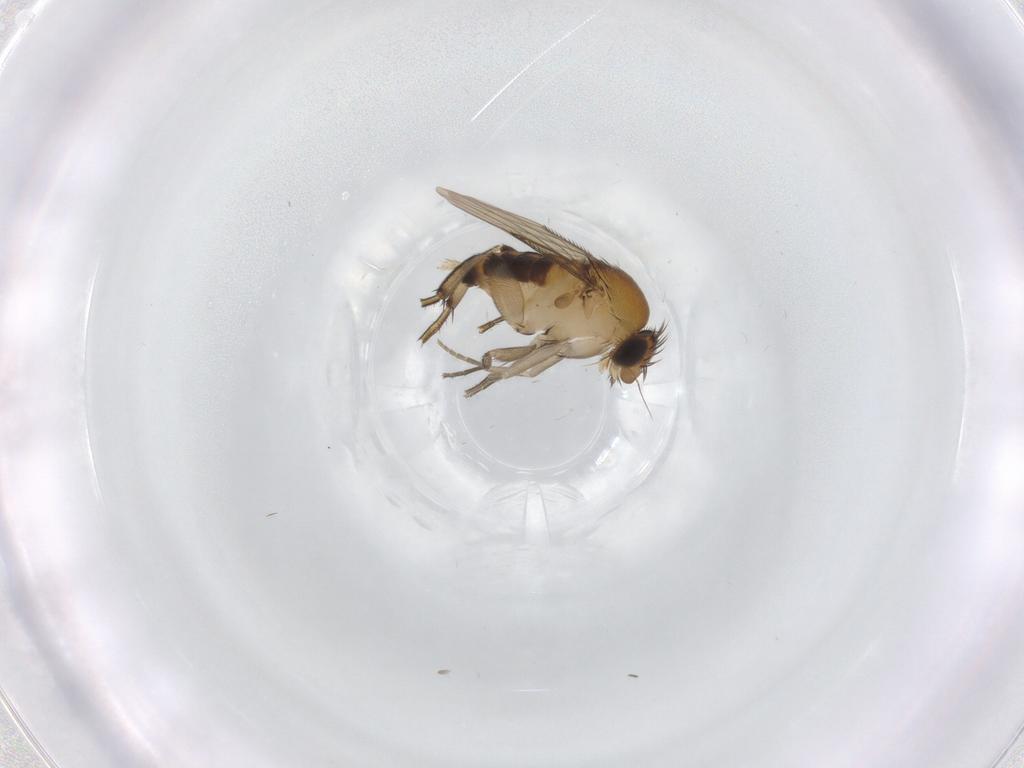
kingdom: Animalia
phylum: Arthropoda
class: Insecta
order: Diptera
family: Phoridae
